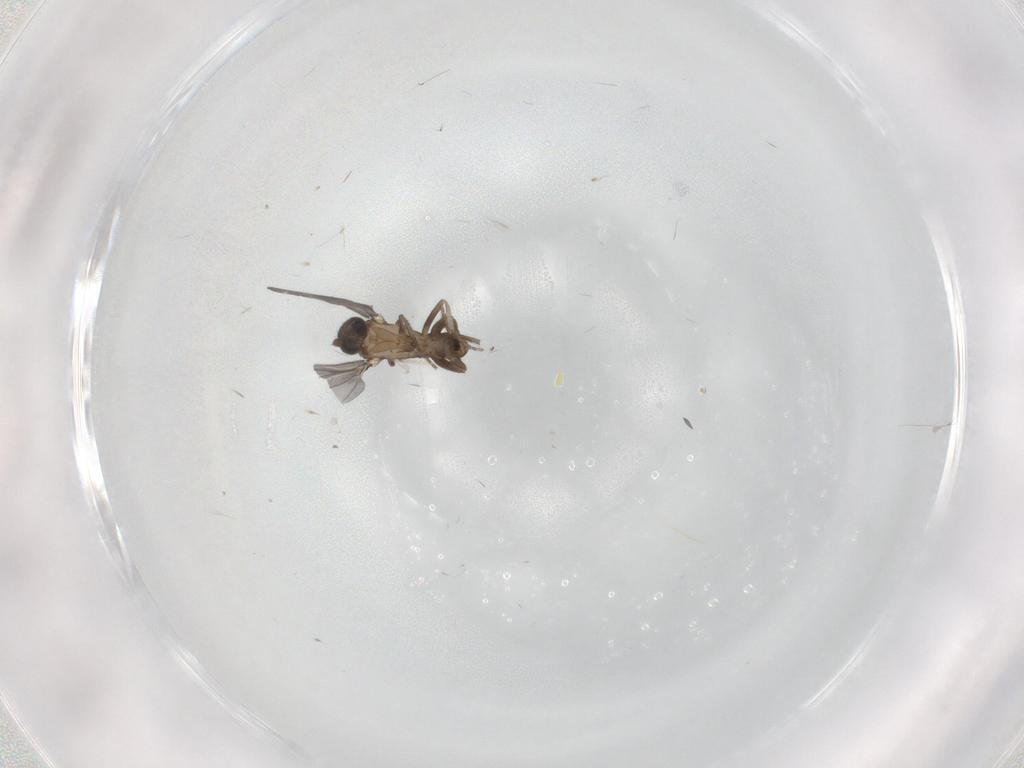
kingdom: Animalia
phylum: Arthropoda
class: Insecta
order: Diptera
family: Phoridae
